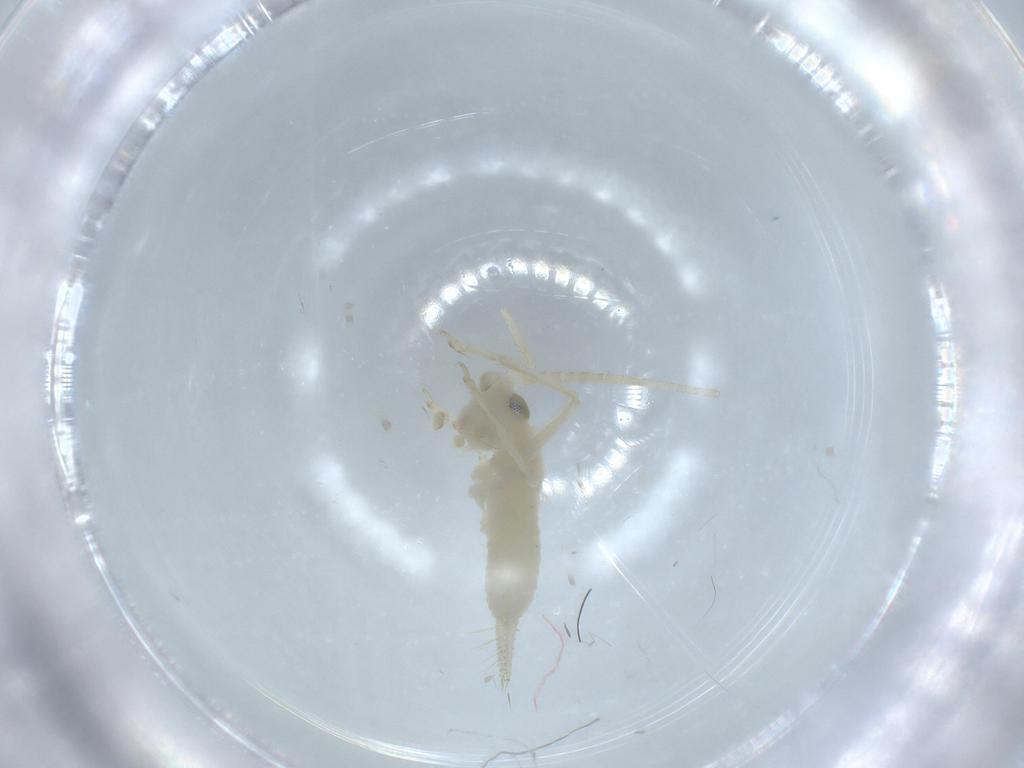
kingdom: Animalia
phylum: Arthropoda
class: Insecta
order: Orthoptera
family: Trigonidiidae
